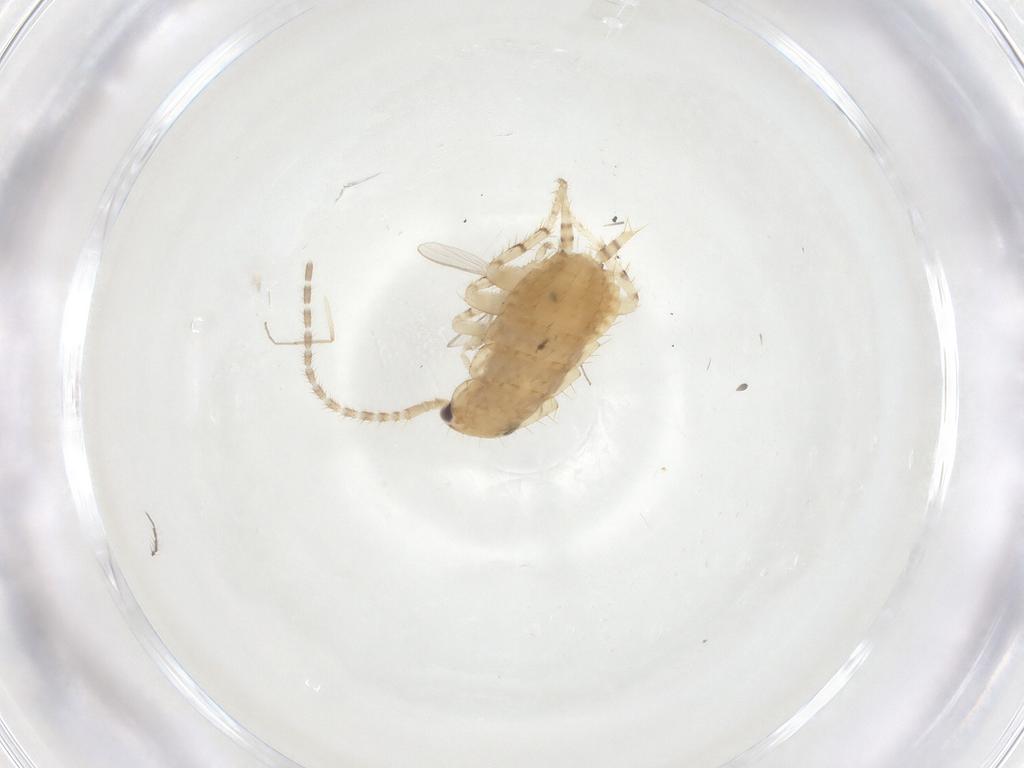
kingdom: Animalia
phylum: Arthropoda
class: Insecta
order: Blattodea
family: Ectobiidae
